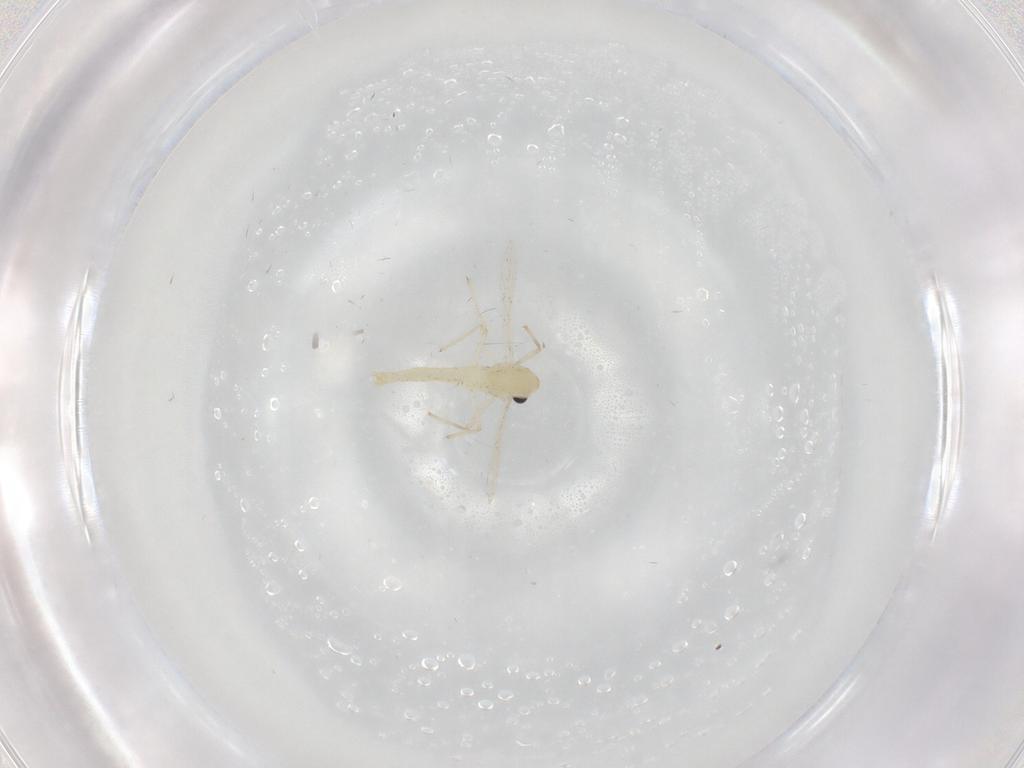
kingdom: Animalia
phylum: Arthropoda
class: Insecta
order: Diptera
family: Chironomidae
